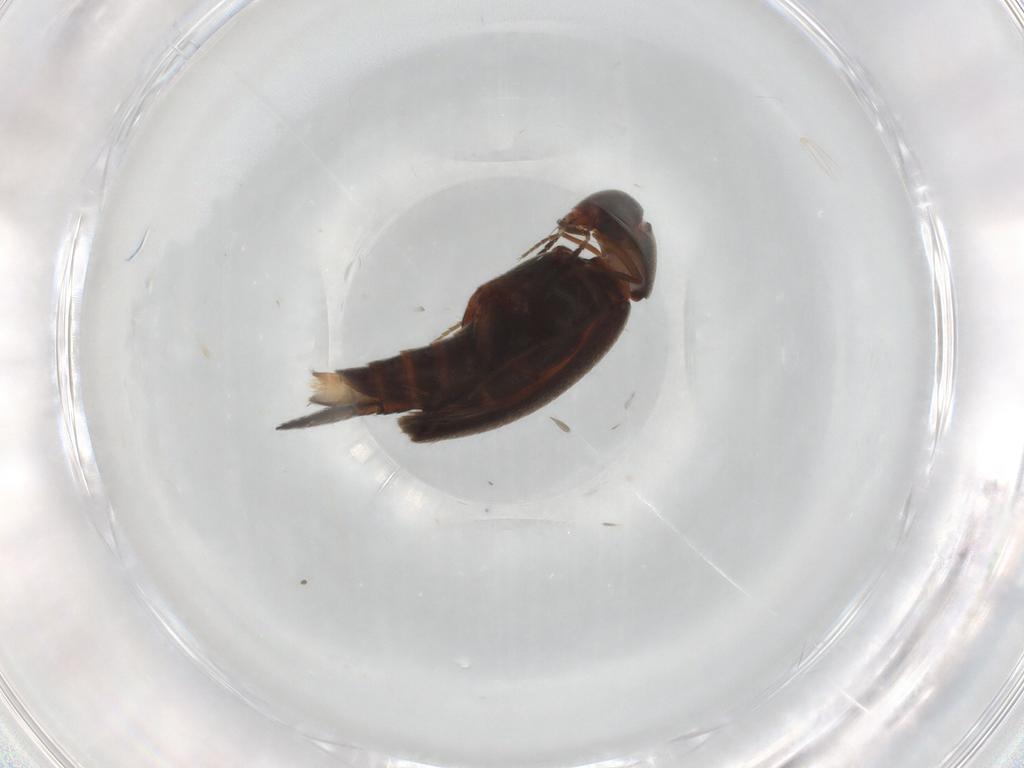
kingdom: Animalia
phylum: Arthropoda
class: Insecta
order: Coleoptera
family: Mordellidae
